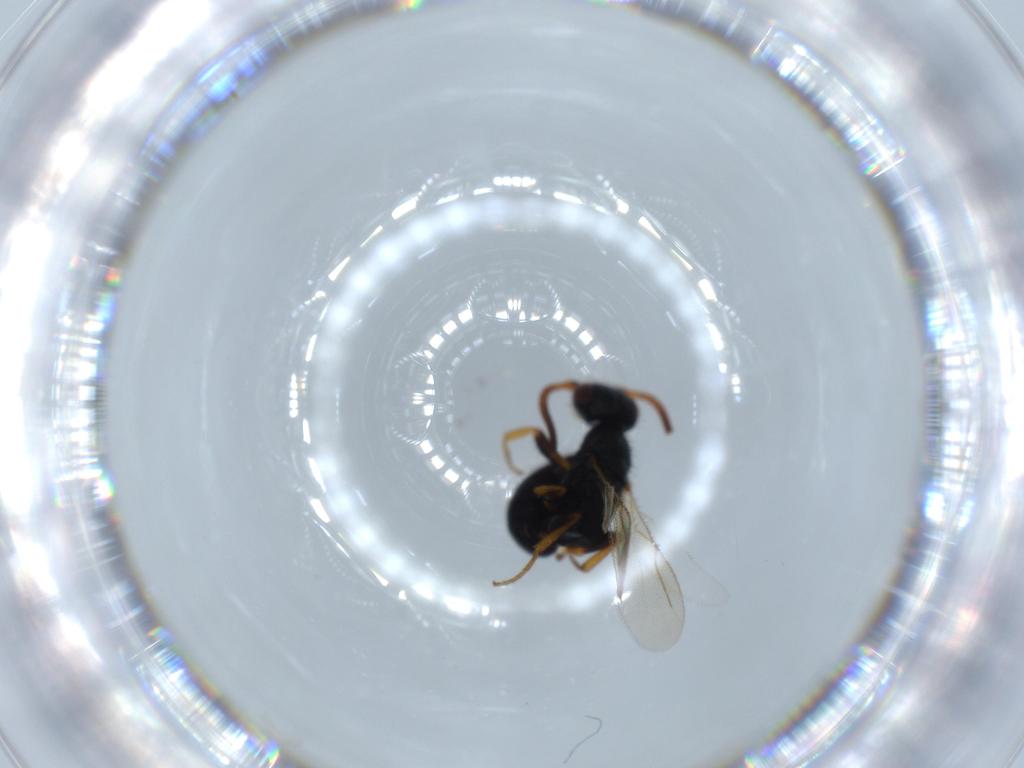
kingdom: Animalia
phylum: Arthropoda
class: Insecta
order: Hymenoptera
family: Bethylidae
